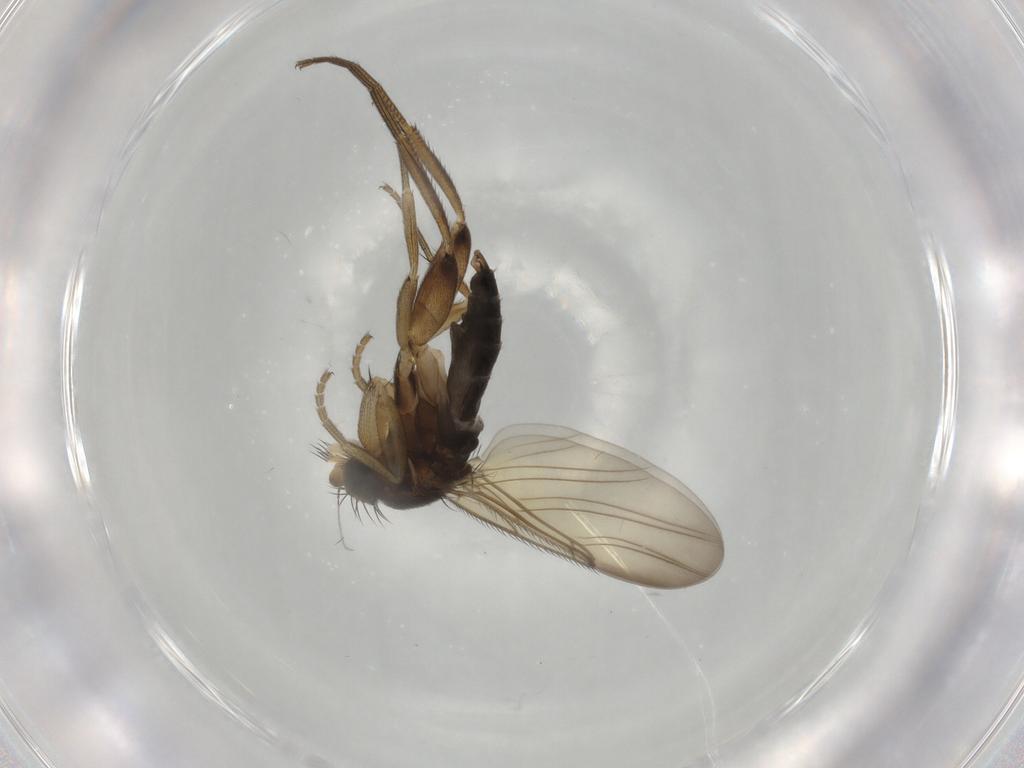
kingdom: Animalia
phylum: Arthropoda
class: Insecta
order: Diptera
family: Phoridae
